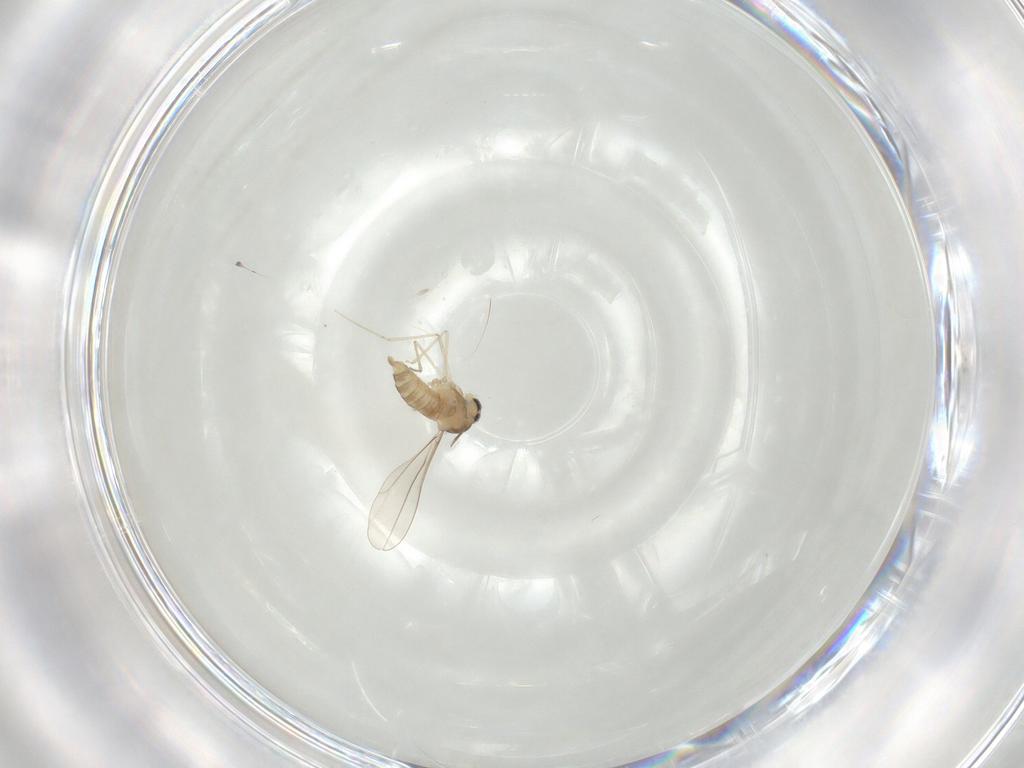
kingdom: Animalia
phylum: Arthropoda
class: Insecta
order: Diptera
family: Cecidomyiidae
